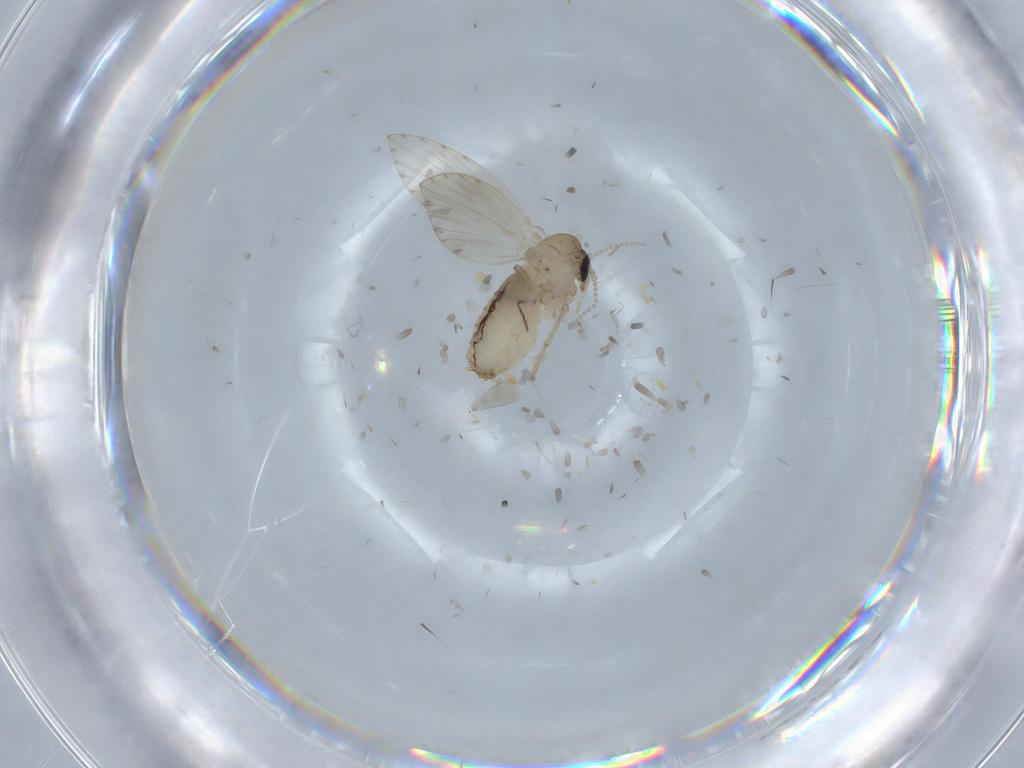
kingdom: Animalia
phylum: Arthropoda
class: Insecta
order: Diptera
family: Psychodidae
